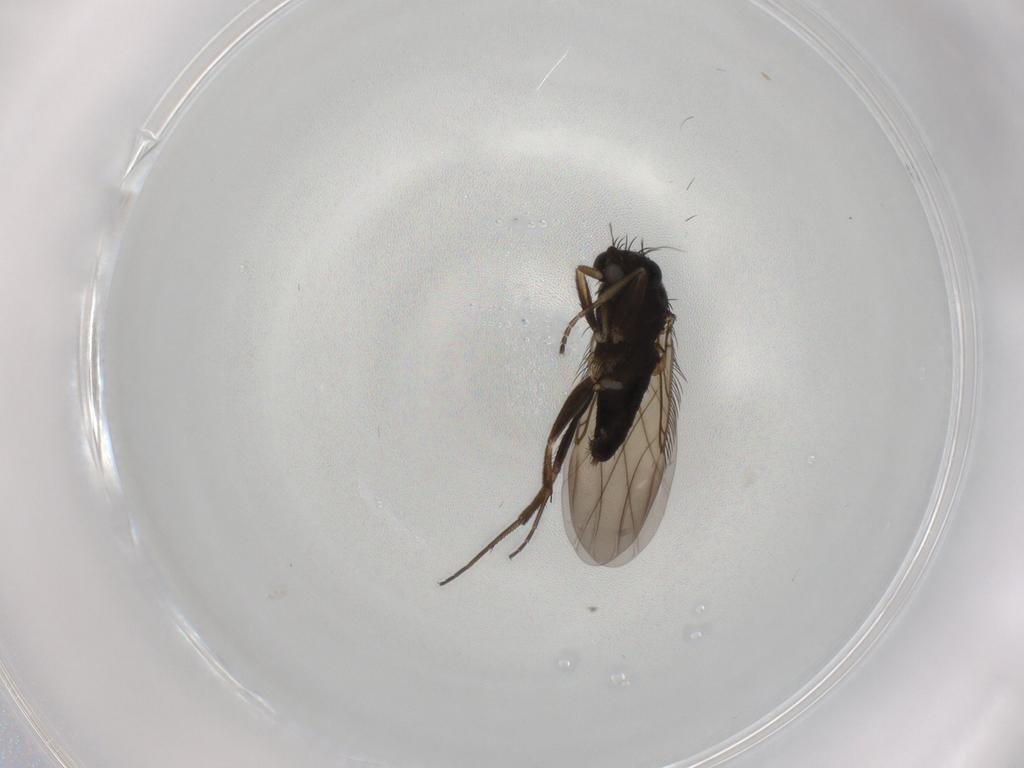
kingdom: Animalia
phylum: Arthropoda
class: Insecta
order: Diptera
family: Phoridae
